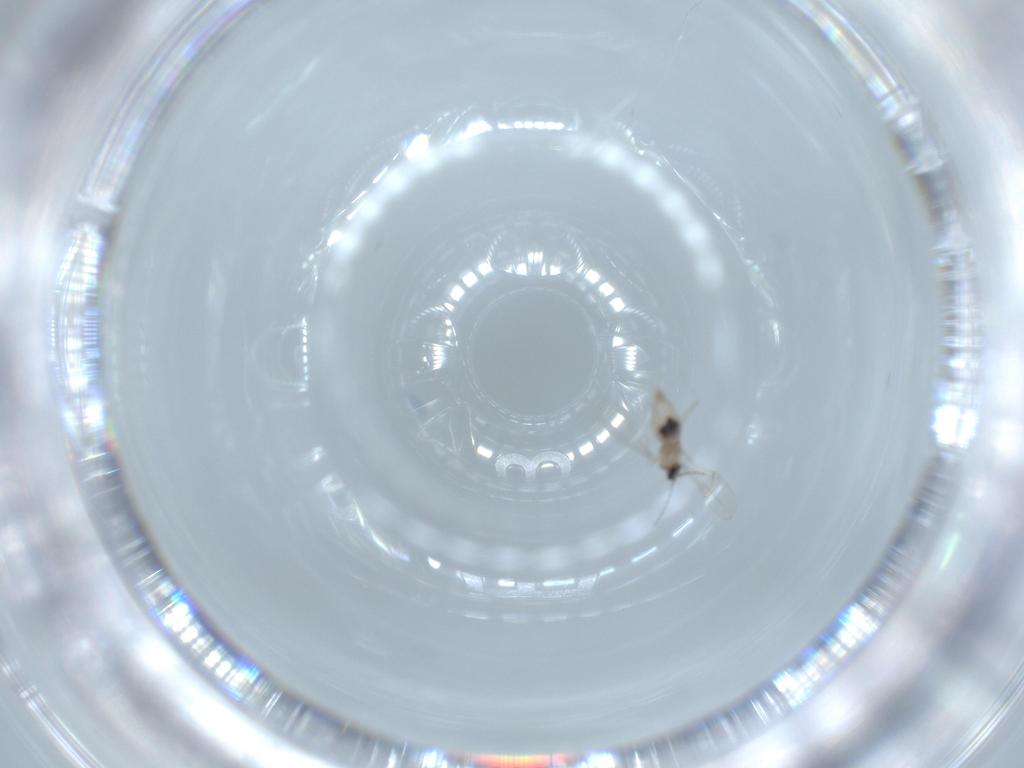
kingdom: Animalia
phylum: Arthropoda
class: Insecta
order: Diptera
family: Cecidomyiidae
